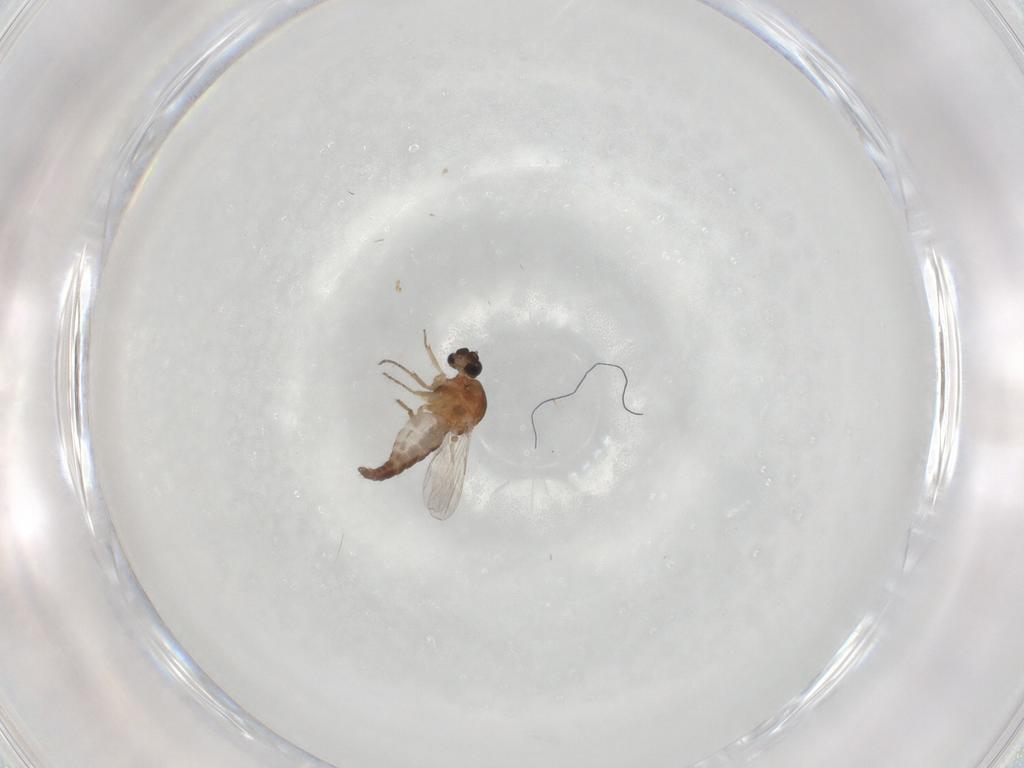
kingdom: Animalia
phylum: Arthropoda
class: Insecta
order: Diptera
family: Ceratopogonidae
